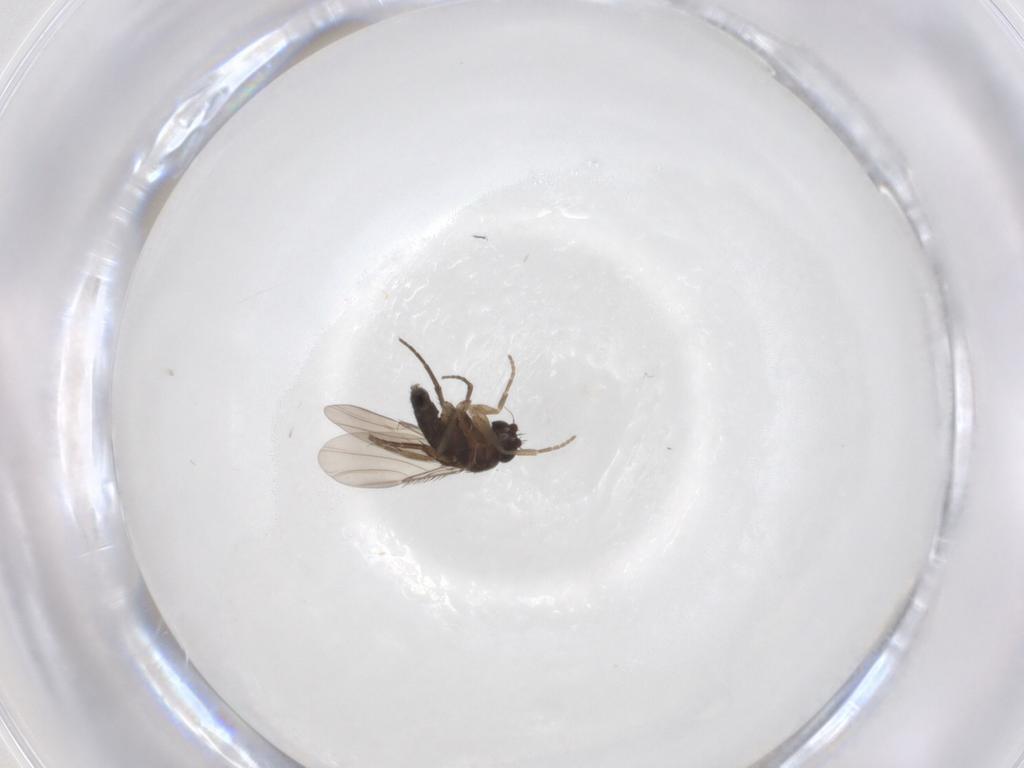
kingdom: Animalia
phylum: Arthropoda
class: Insecta
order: Diptera
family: Asteiidae
